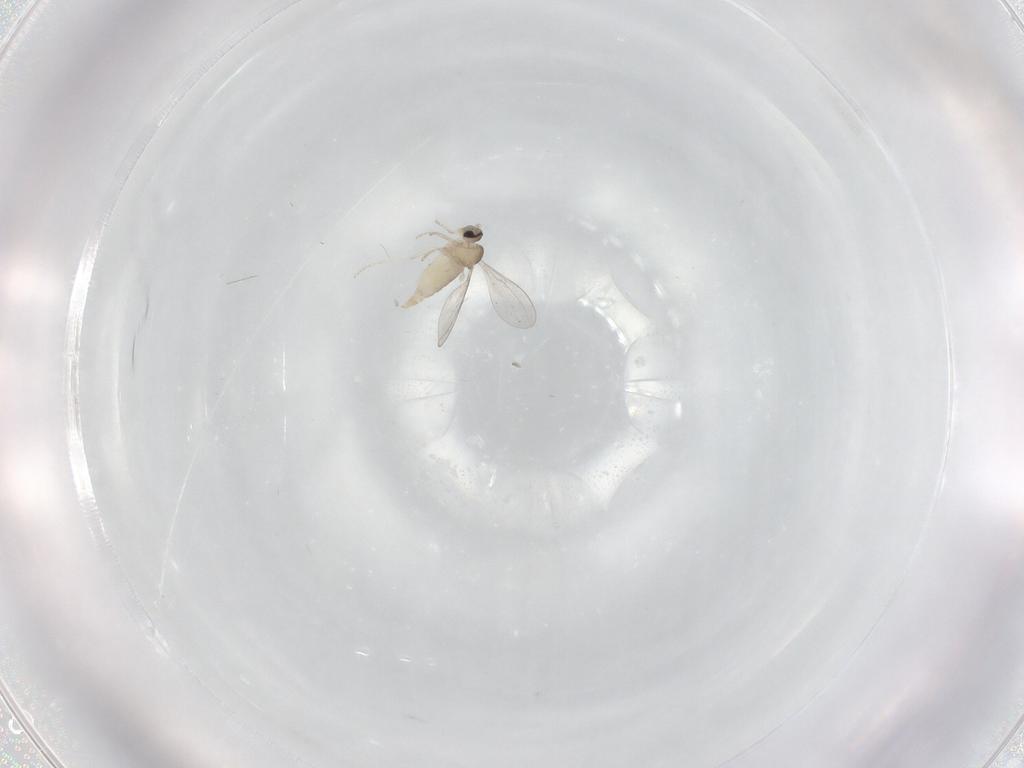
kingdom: Animalia
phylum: Arthropoda
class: Insecta
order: Diptera
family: Cecidomyiidae
